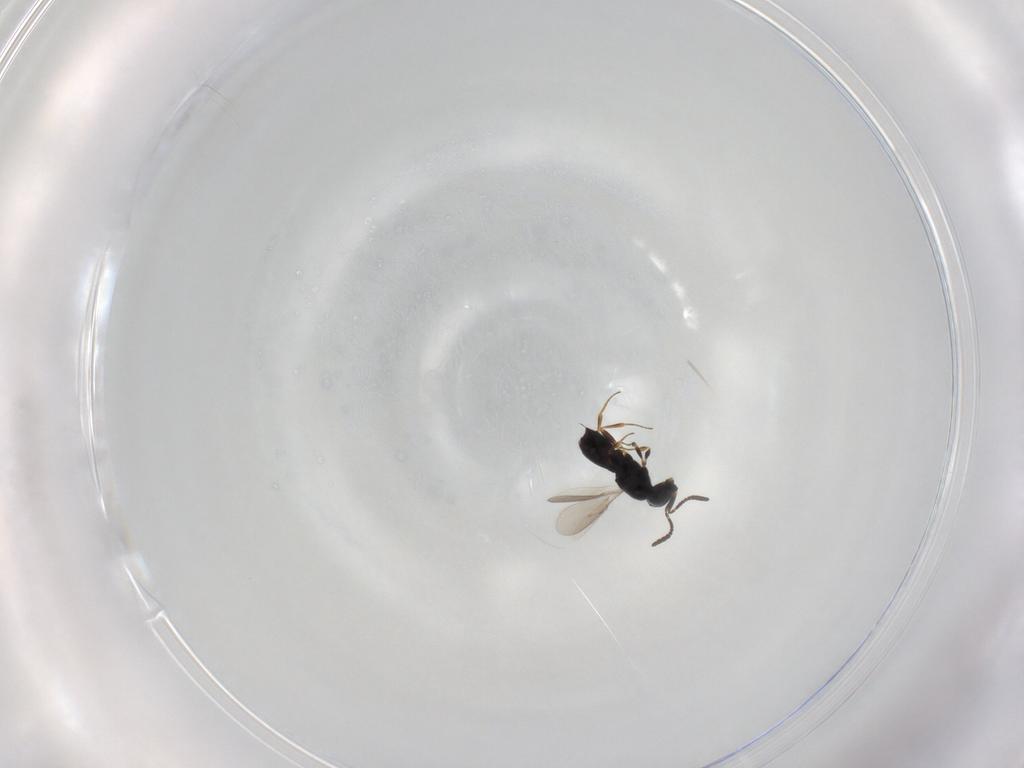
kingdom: Animalia
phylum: Arthropoda
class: Insecta
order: Hymenoptera
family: Scelionidae
